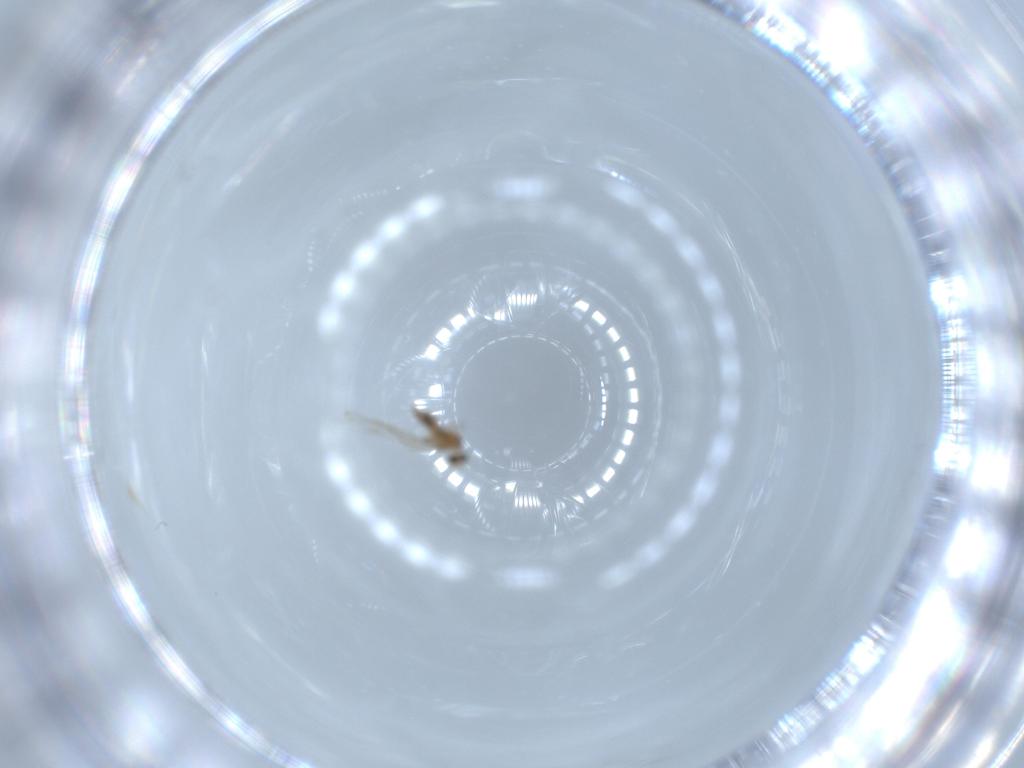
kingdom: Animalia
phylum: Arthropoda
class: Insecta
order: Diptera
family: Cecidomyiidae
